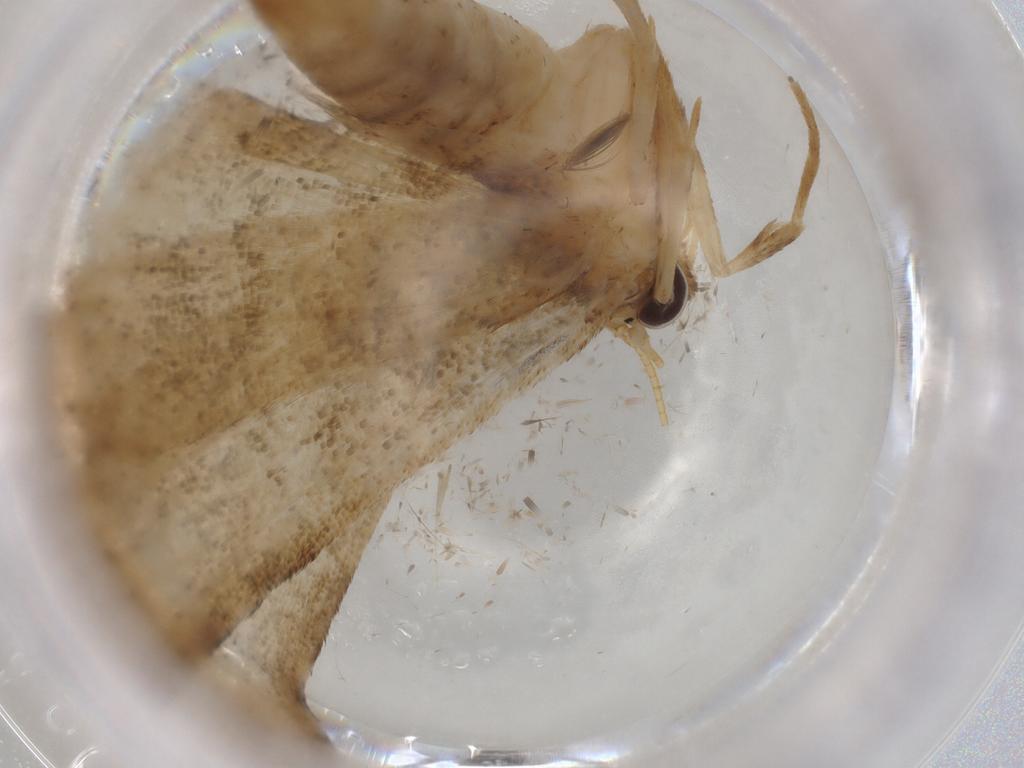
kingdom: Animalia
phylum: Arthropoda
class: Insecta
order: Lepidoptera
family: Crambidae
